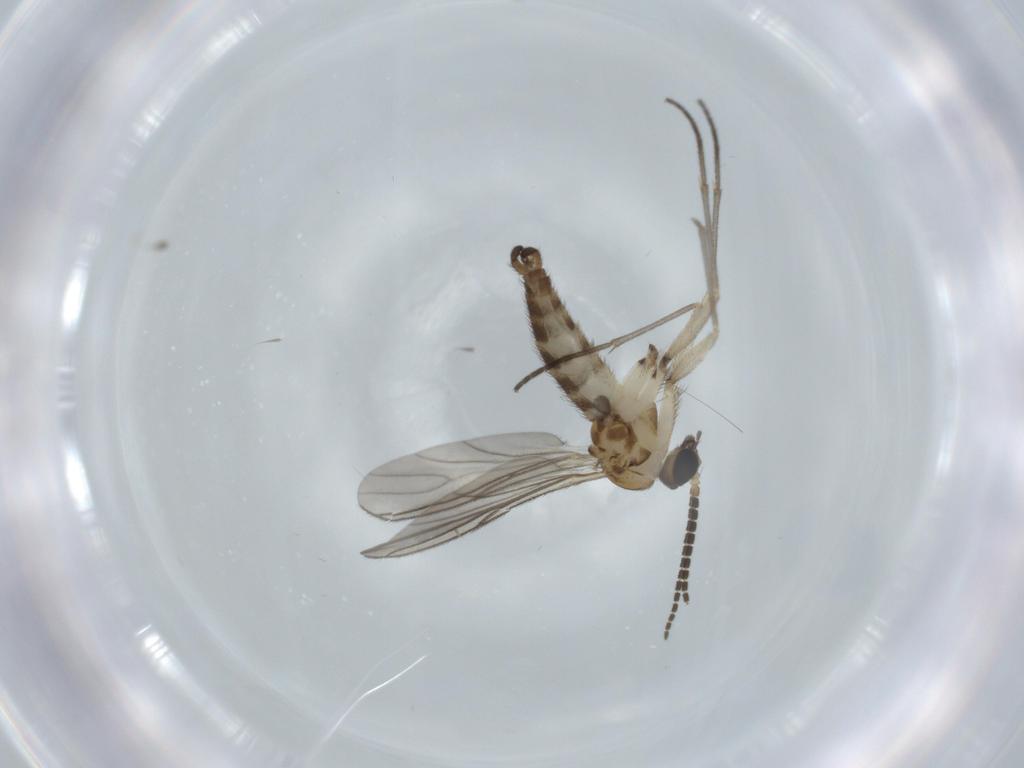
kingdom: Animalia
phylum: Arthropoda
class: Insecta
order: Diptera
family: Sciaridae
